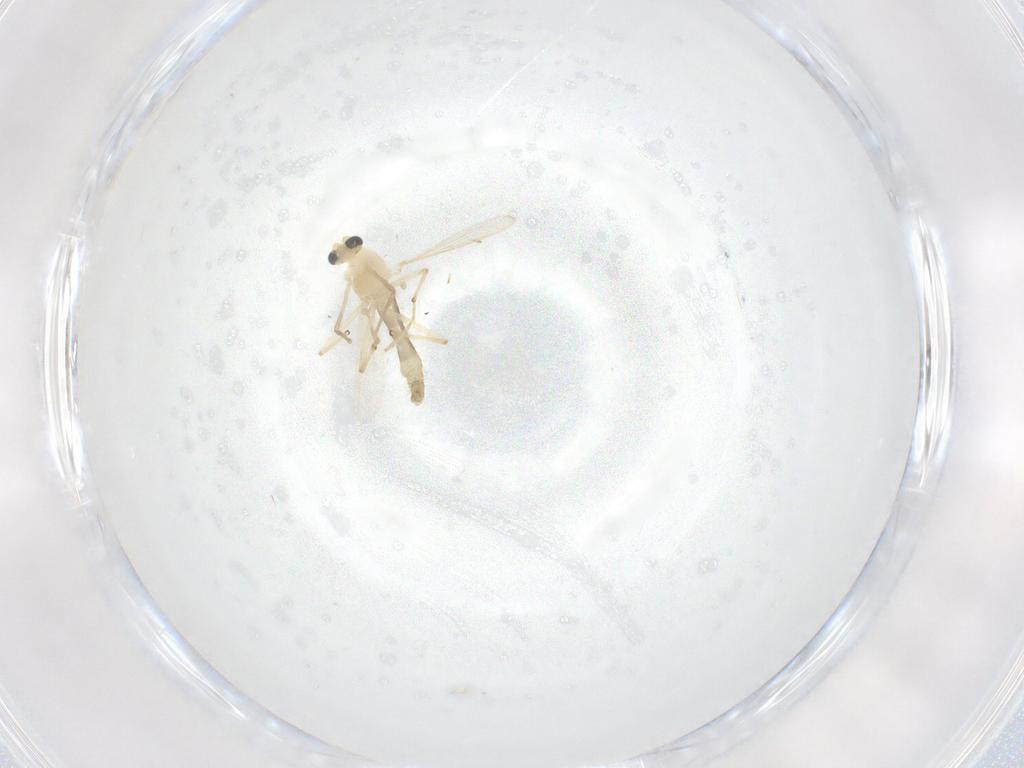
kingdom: Animalia
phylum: Arthropoda
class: Insecta
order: Diptera
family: Chironomidae
